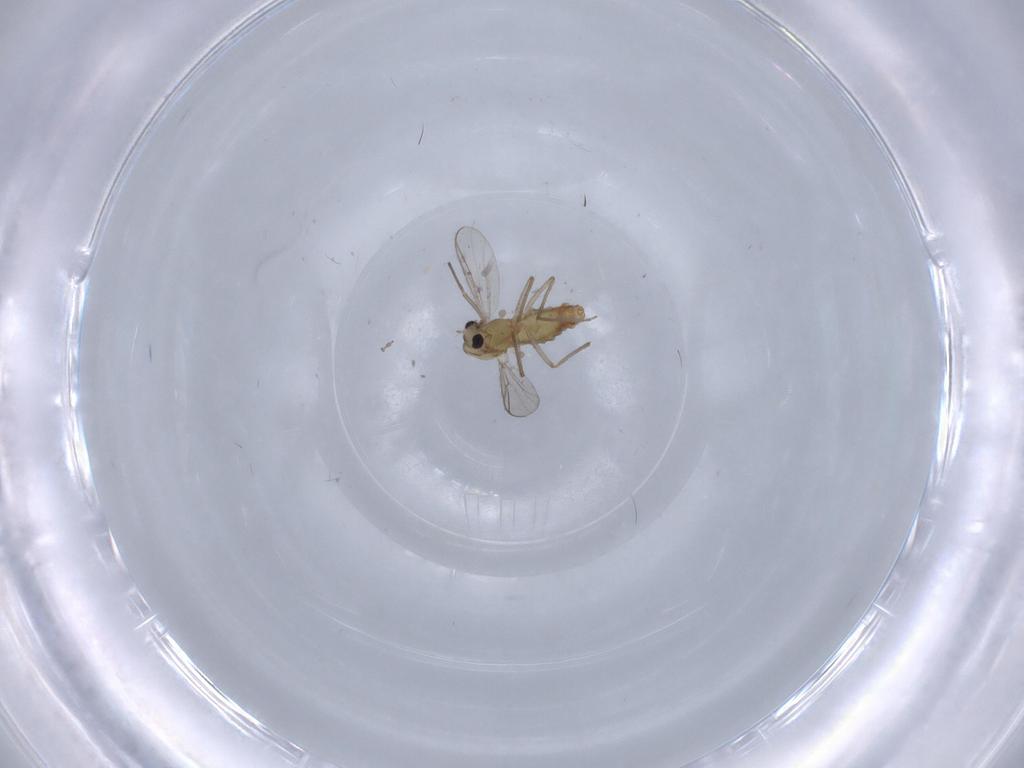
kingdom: Animalia
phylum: Arthropoda
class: Insecta
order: Diptera
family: Chironomidae
